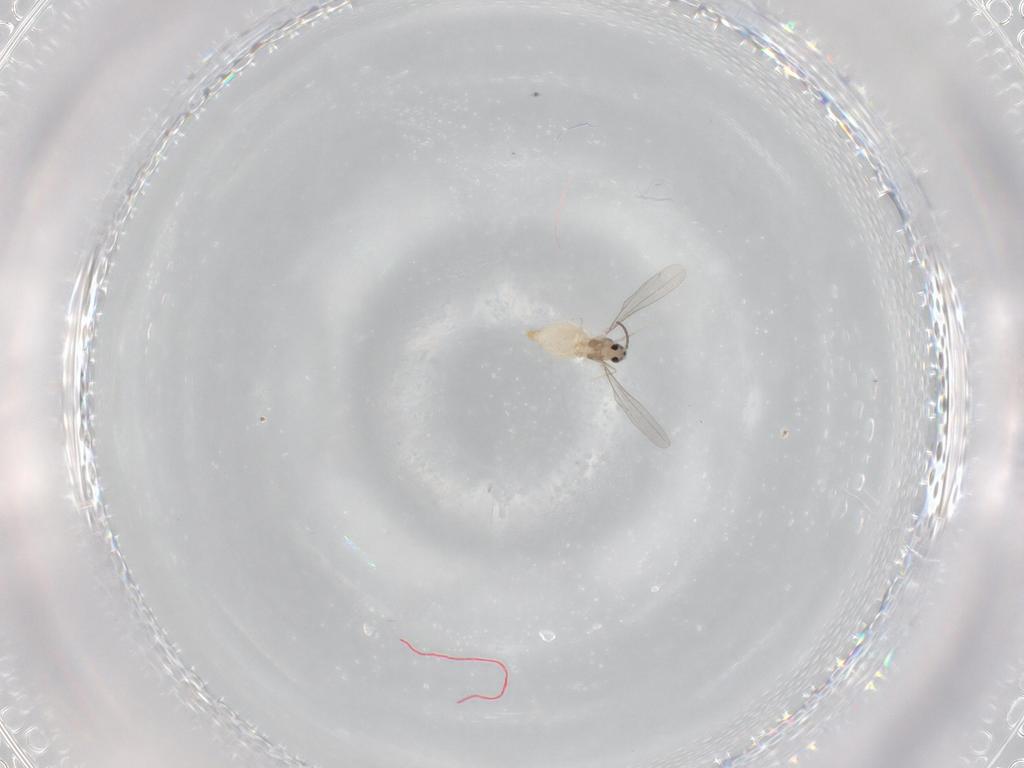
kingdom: Animalia
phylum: Arthropoda
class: Insecta
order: Diptera
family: Cecidomyiidae
